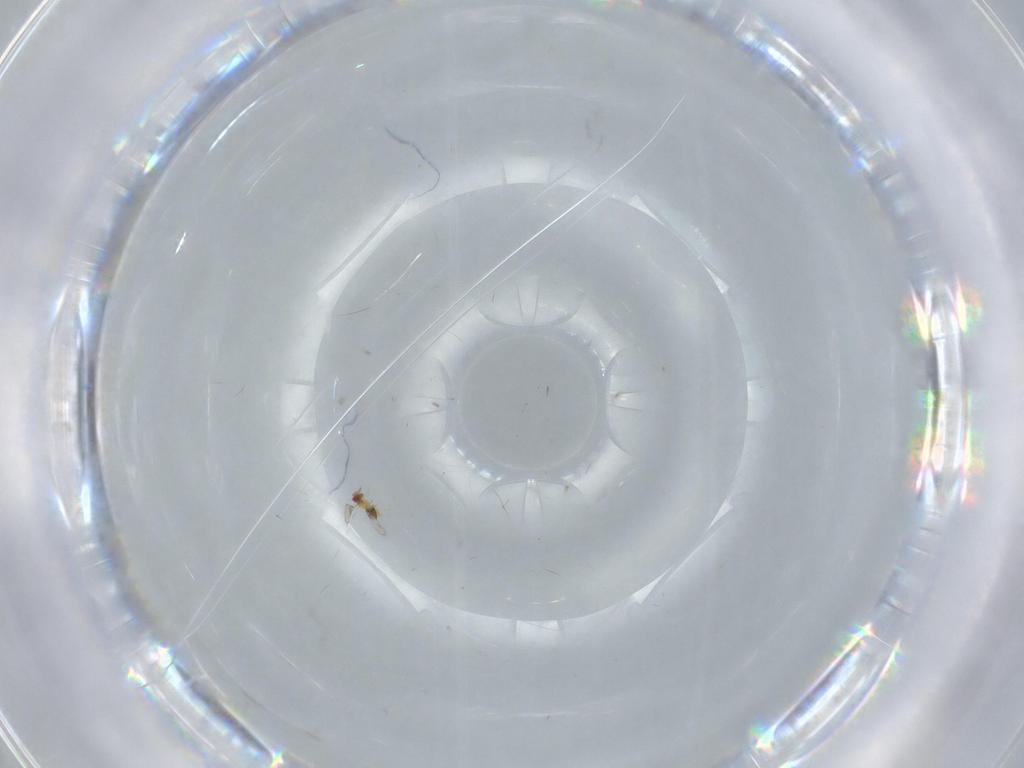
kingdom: Animalia
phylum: Arthropoda
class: Insecta
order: Hymenoptera
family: Trichogrammatidae
